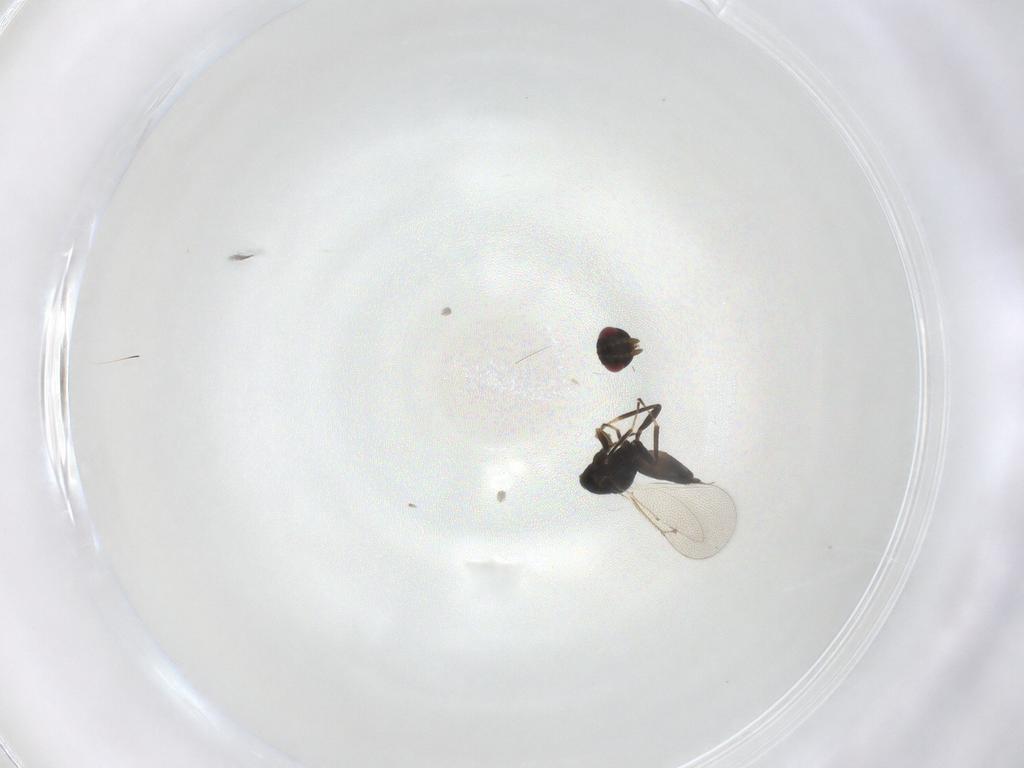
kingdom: Animalia
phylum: Arthropoda
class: Insecta
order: Hymenoptera
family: Eulophidae
